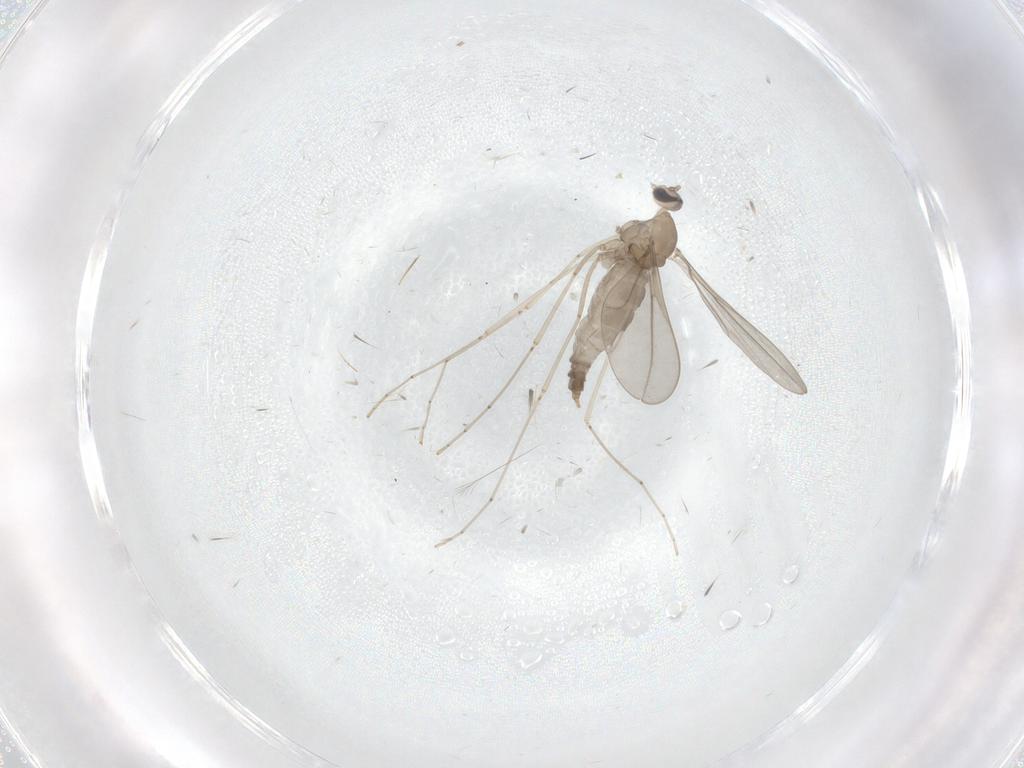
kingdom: Animalia
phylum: Arthropoda
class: Insecta
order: Diptera
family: Cecidomyiidae
